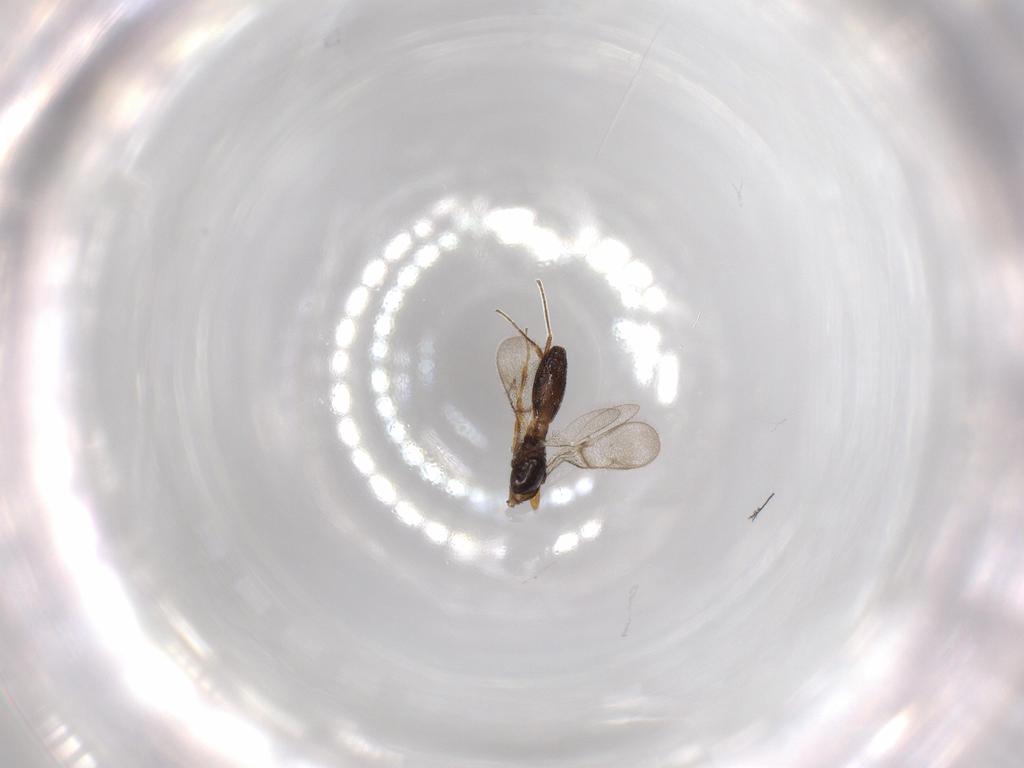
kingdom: Animalia
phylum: Arthropoda
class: Insecta
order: Hymenoptera
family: Scelionidae
